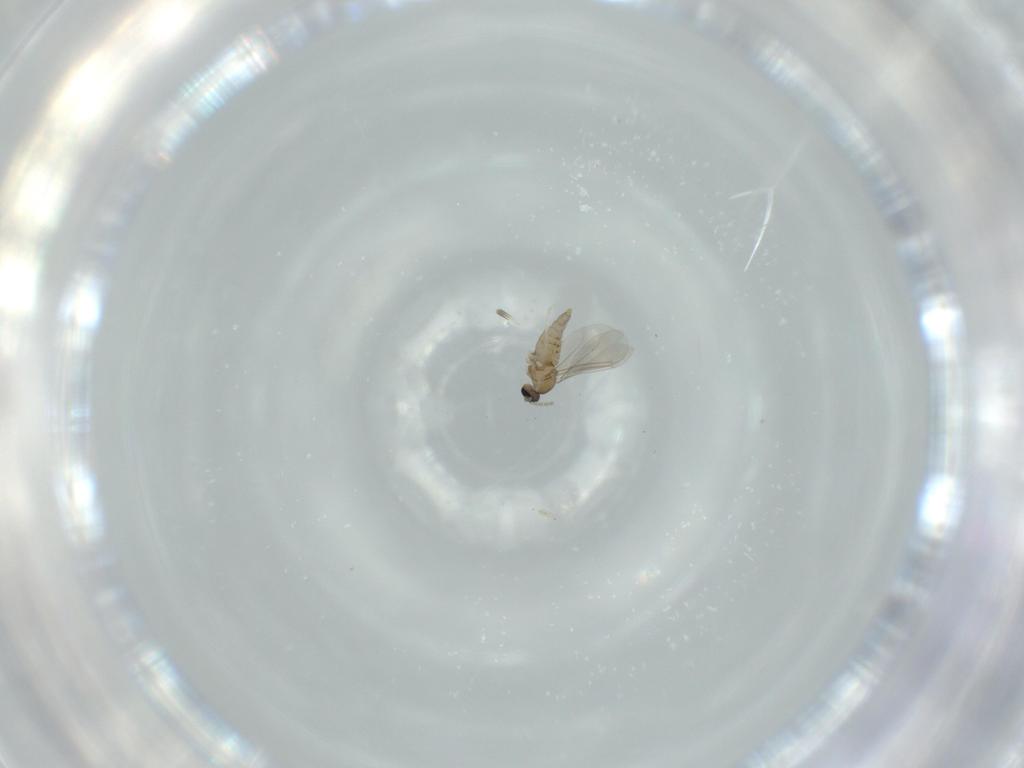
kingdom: Animalia
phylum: Arthropoda
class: Insecta
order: Diptera
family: Cecidomyiidae
